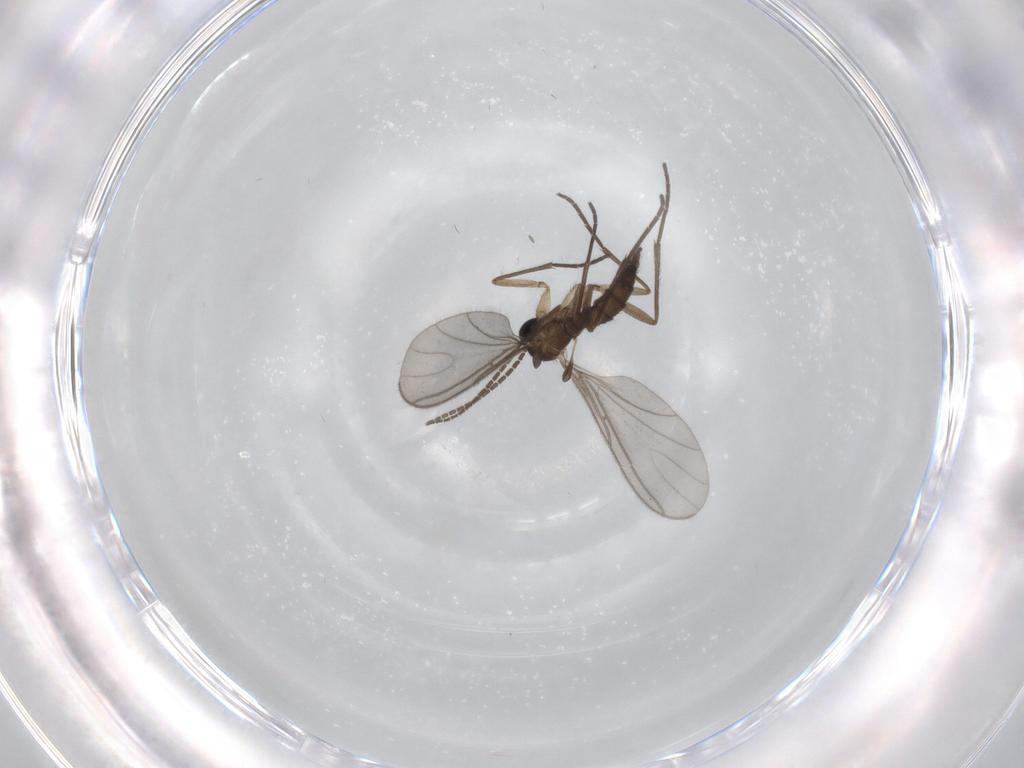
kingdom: Animalia
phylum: Arthropoda
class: Insecta
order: Diptera
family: Sciaridae
